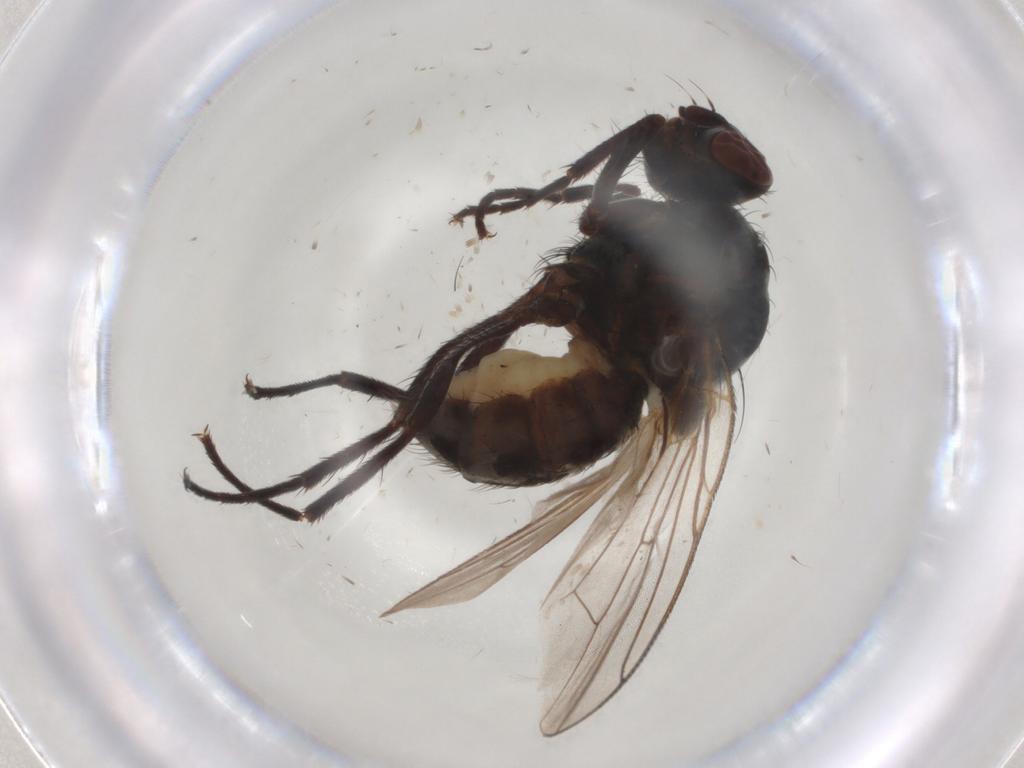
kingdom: Animalia
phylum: Arthropoda
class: Insecta
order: Diptera
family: Anthomyiidae
